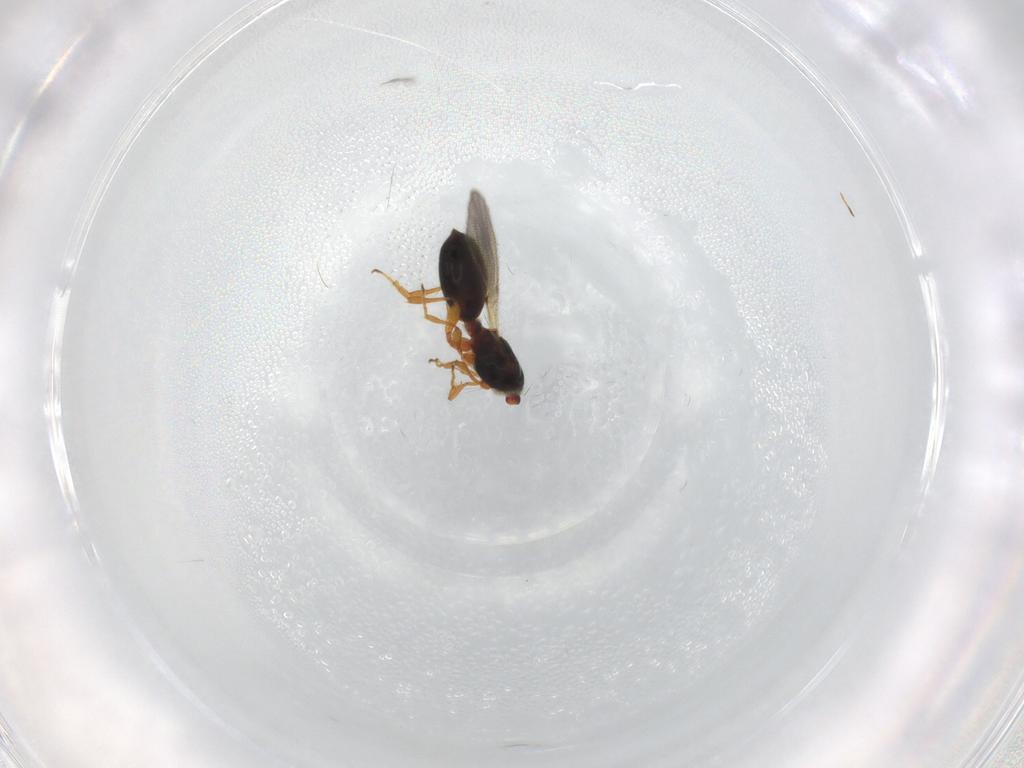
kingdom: Animalia
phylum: Arthropoda
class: Insecta
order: Hymenoptera
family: Diapriidae
